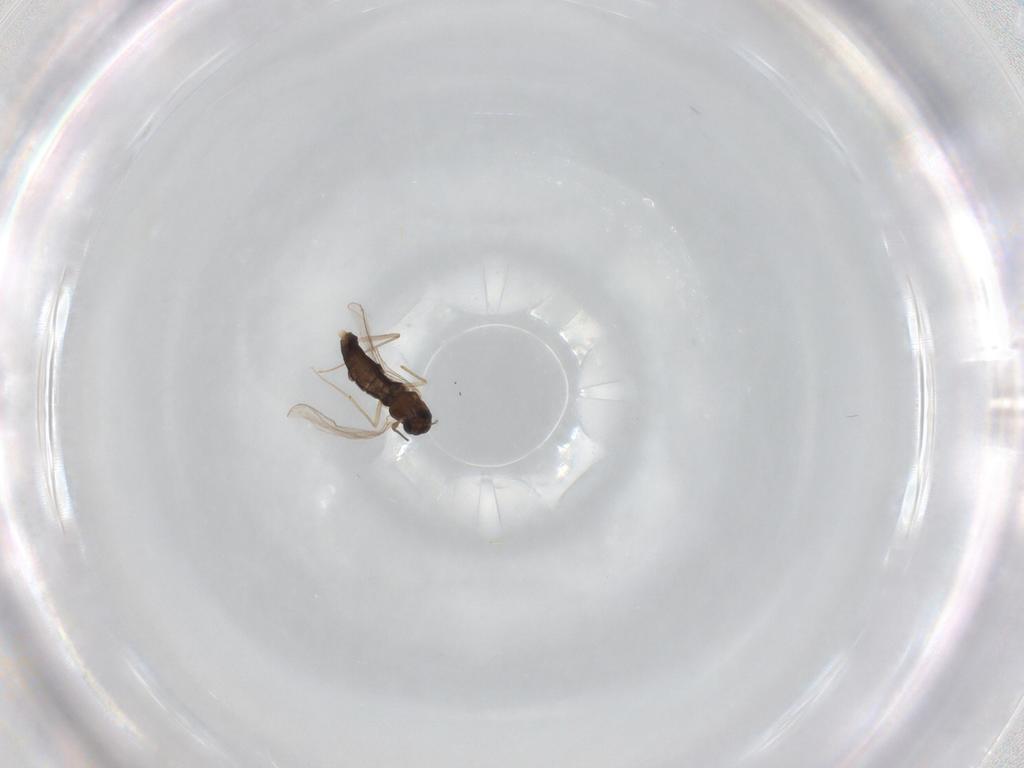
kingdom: Animalia
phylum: Arthropoda
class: Insecta
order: Diptera
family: Chironomidae
